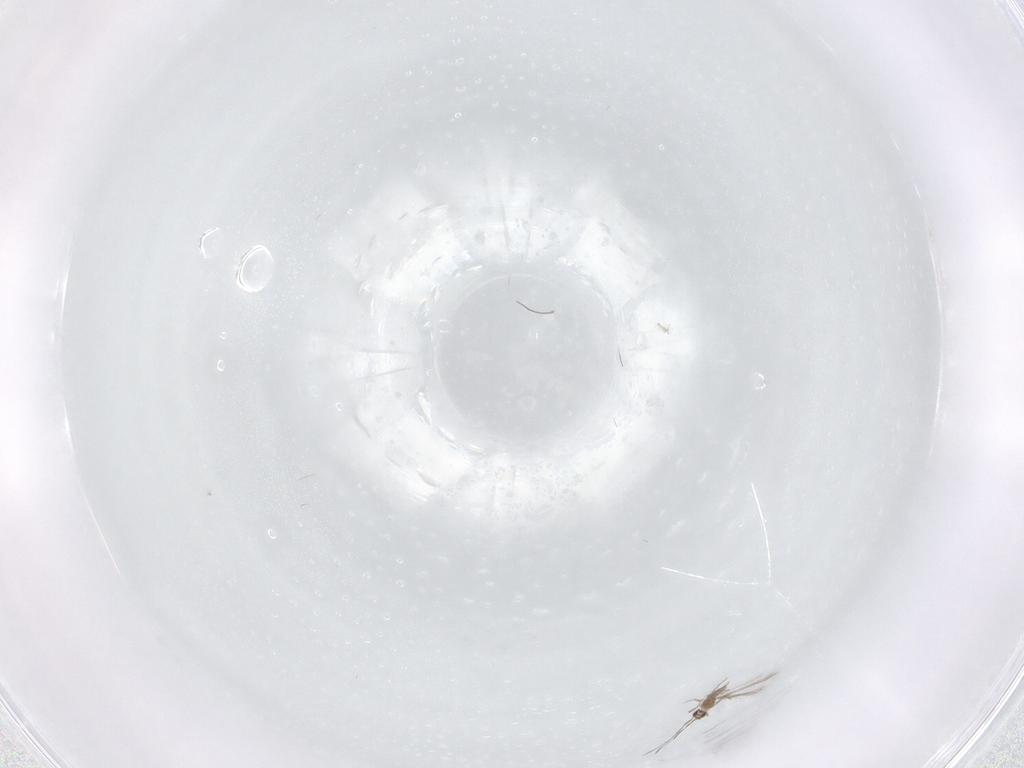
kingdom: Animalia
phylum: Arthropoda
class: Insecta
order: Hymenoptera
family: Mymaridae
